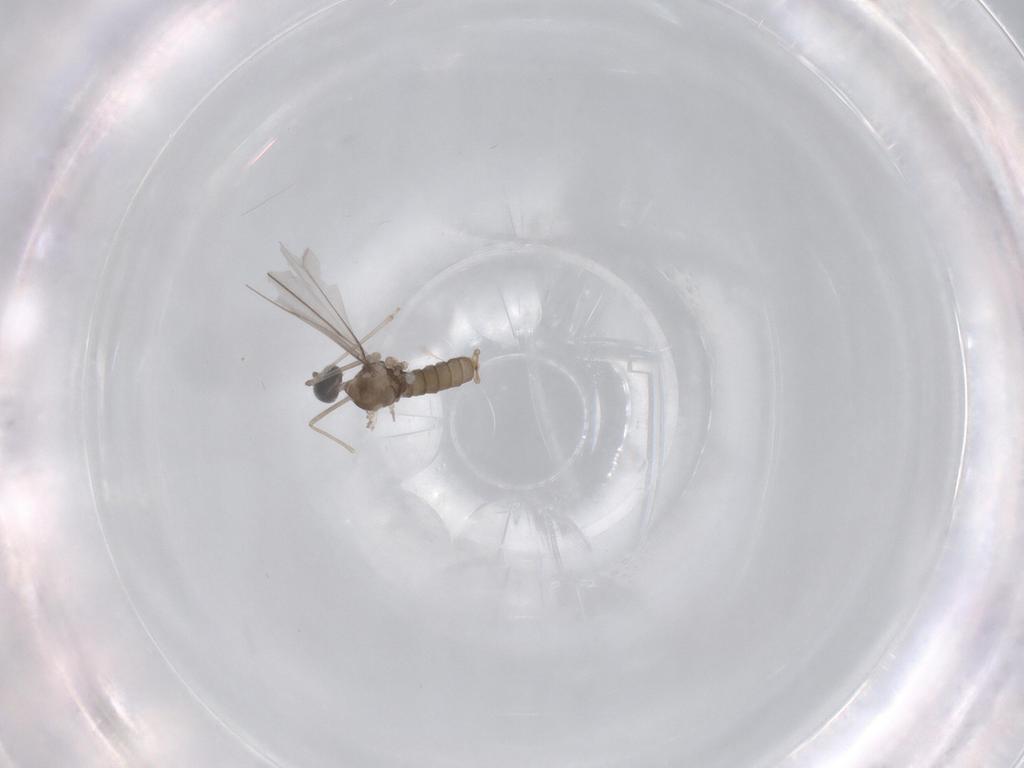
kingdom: Animalia
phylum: Arthropoda
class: Insecta
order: Diptera
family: Cecidomyiidae
